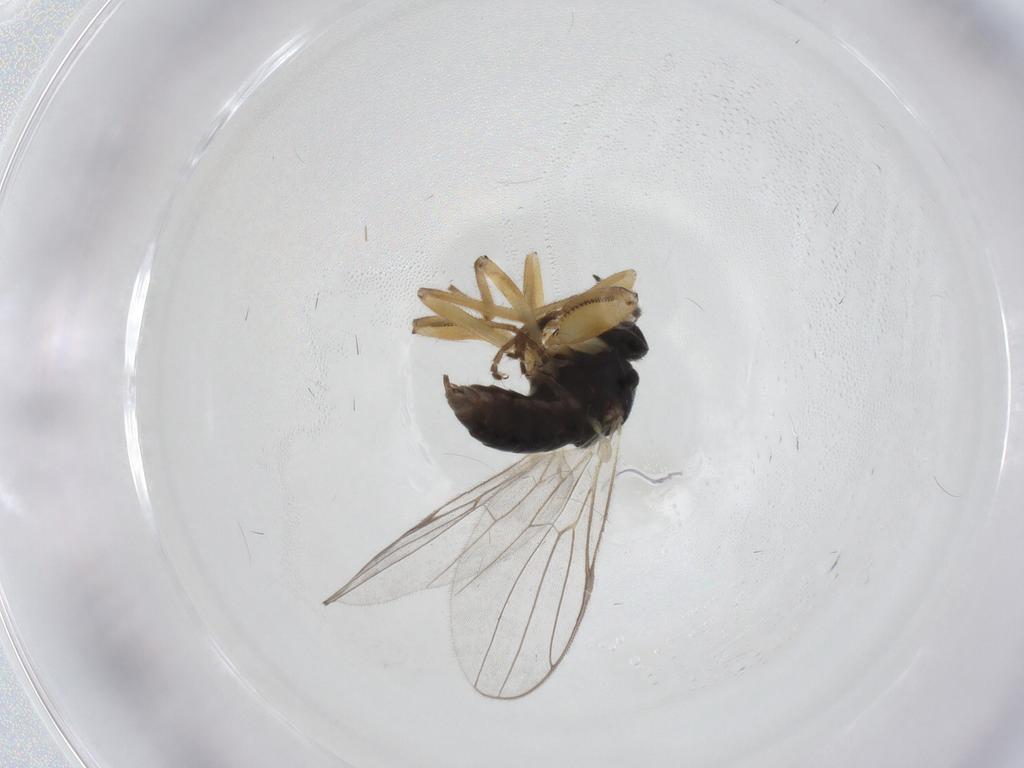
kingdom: Animalia
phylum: Arthropoda
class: Insecta
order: Diptera
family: Hybotidae
